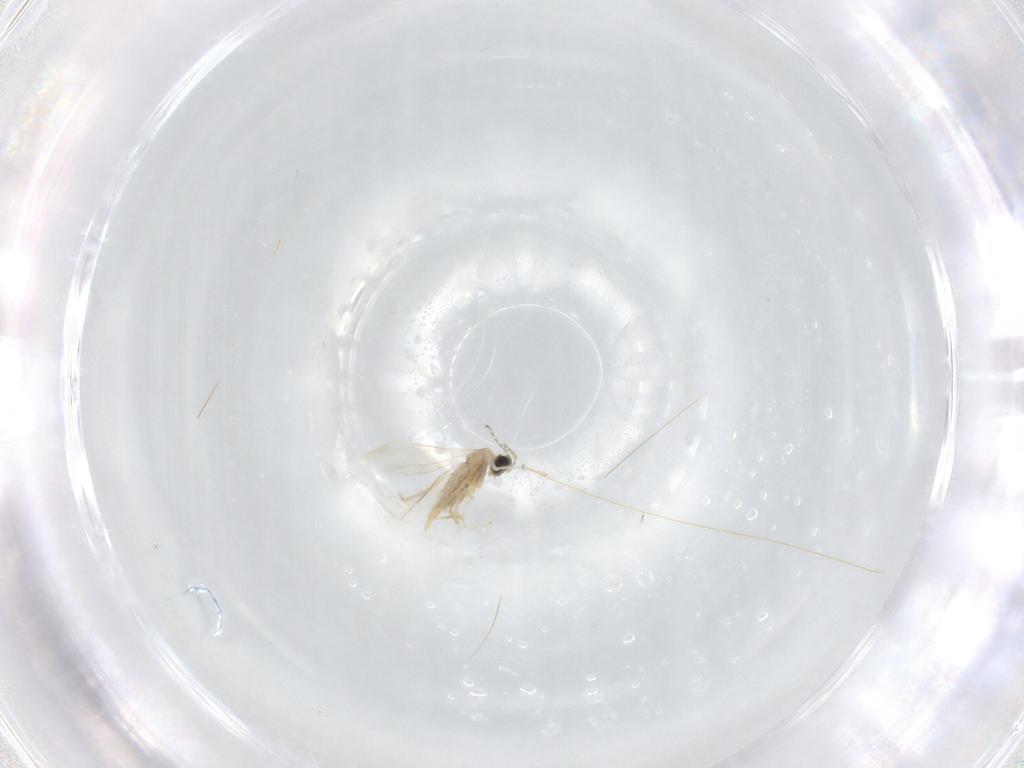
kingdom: Animalia
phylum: Arthropoda
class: Insecta
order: Diptera
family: Cecidomyiidae
